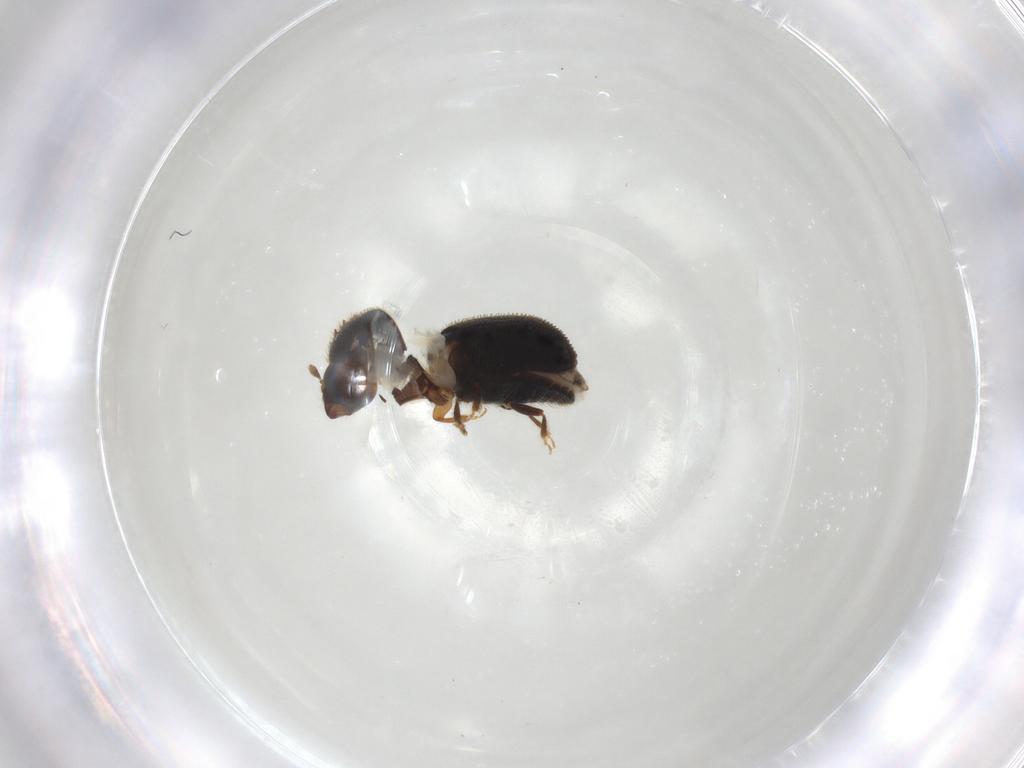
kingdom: Animalia
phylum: Arthropoda
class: Insecta
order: Coleoptera
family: Curculionidae
